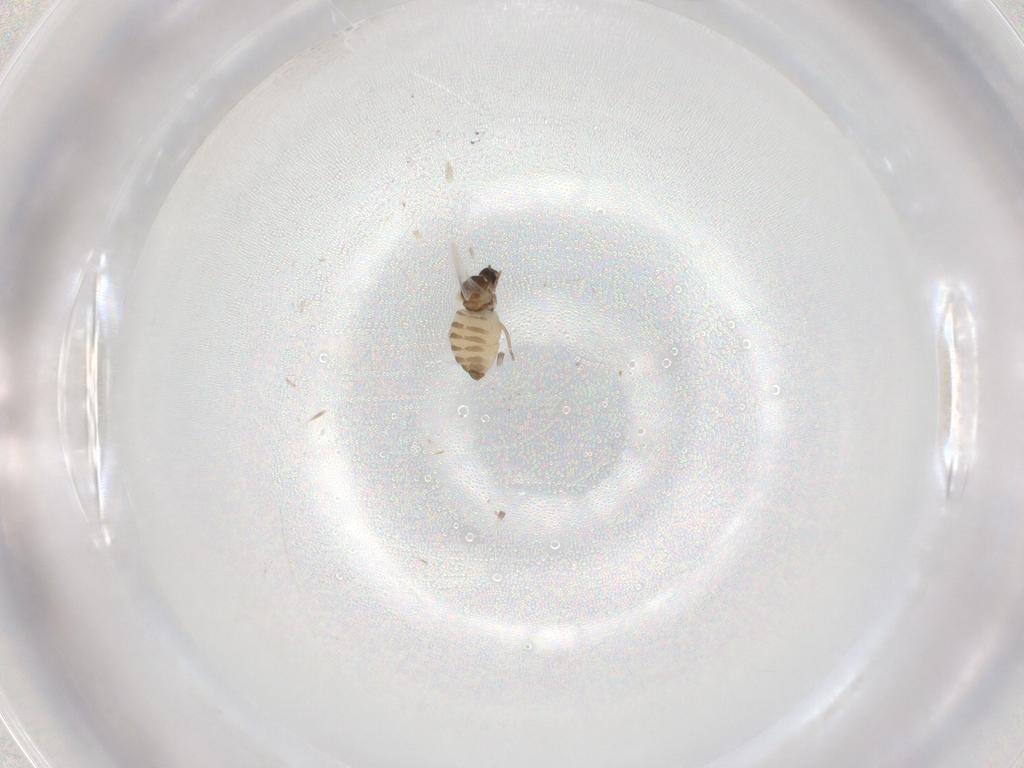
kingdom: Animalia
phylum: Arthropoda
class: Insecta
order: Diptera
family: Cecidomyiidae
